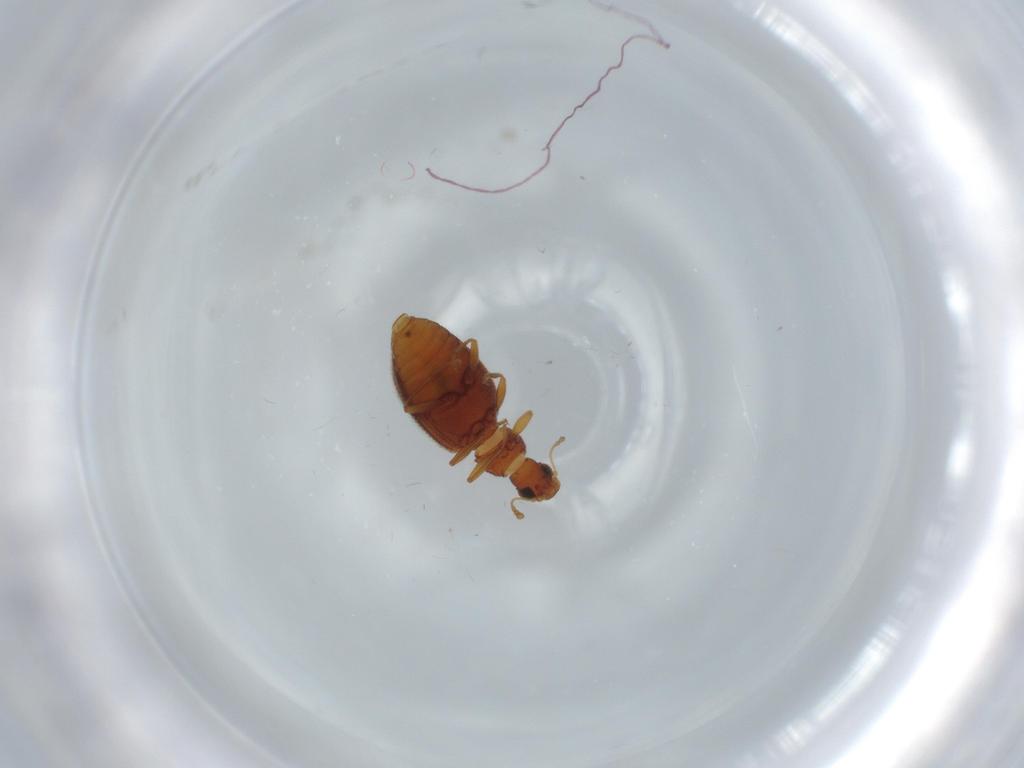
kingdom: Animalia
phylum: Arthropoda
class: Insecta
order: Coleoptera
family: Latridiidae
